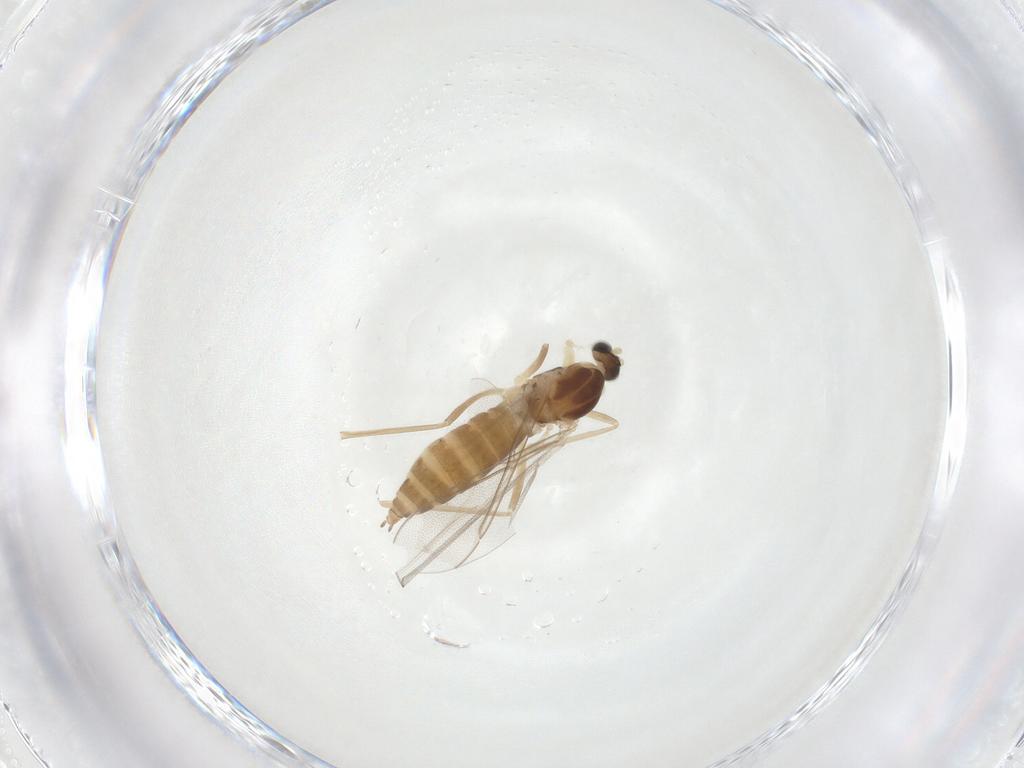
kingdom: Animalia
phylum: Arthropoda
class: Insecta
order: Diptera
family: Cecidomyiidae
